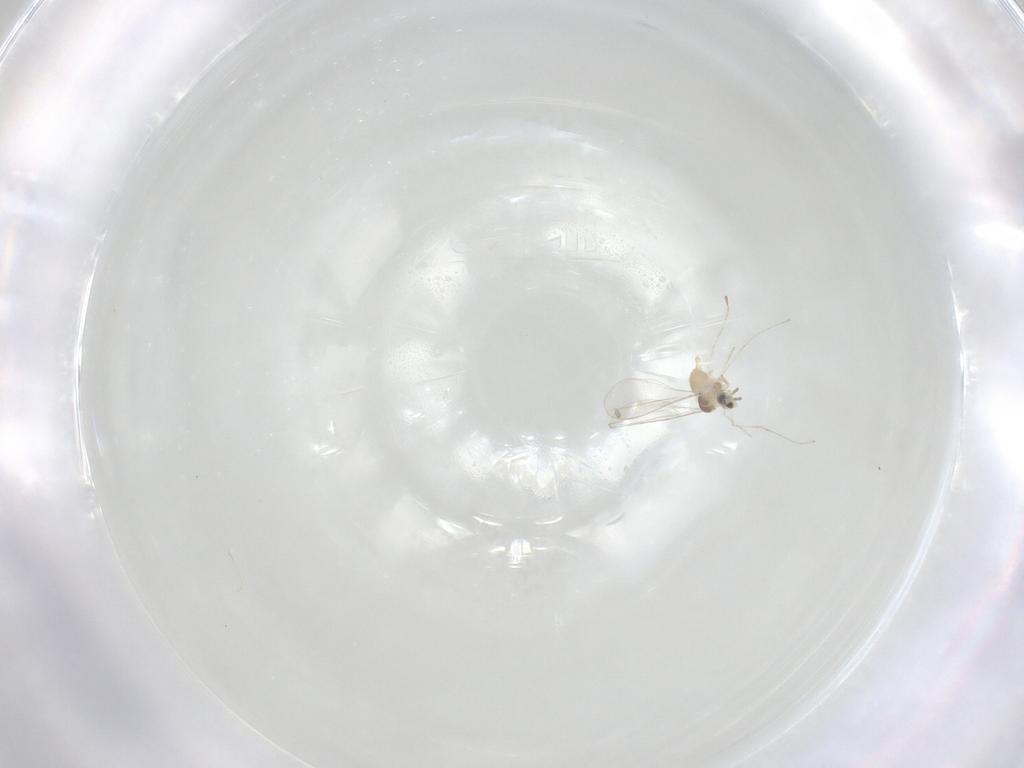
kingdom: Animalia
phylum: Arthropoda
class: Insecta
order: Diptera
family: Cecidomyiidae
